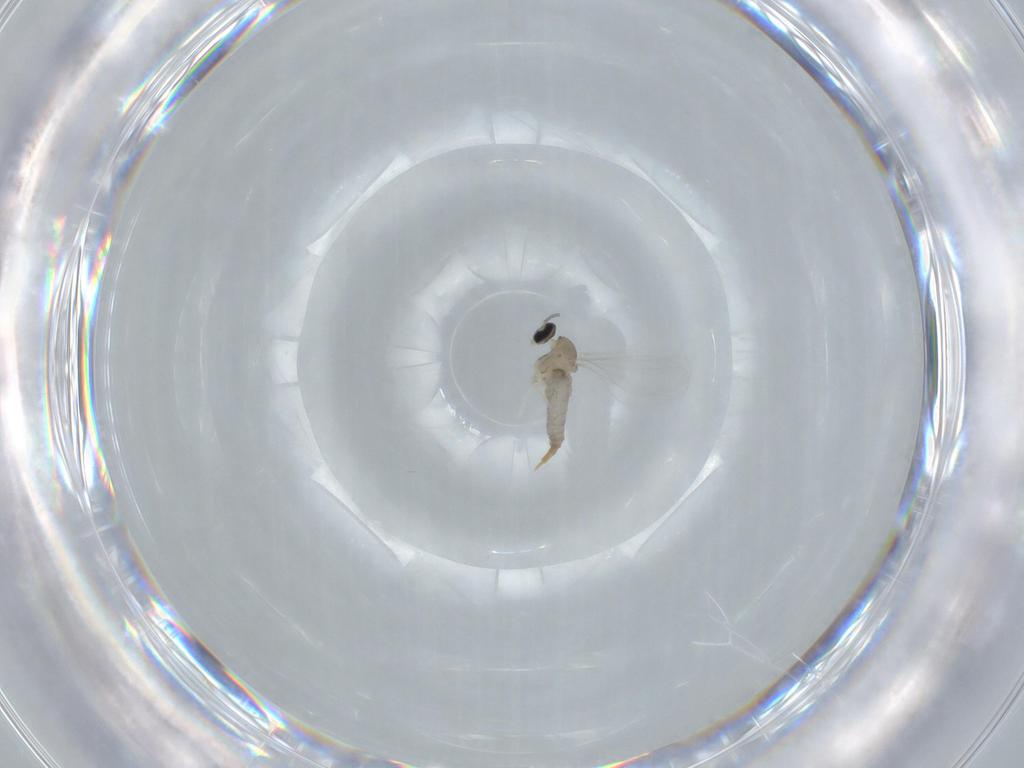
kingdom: Animalia
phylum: Arthropoda
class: Insecta
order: Diptera
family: Cecidomyiidae
